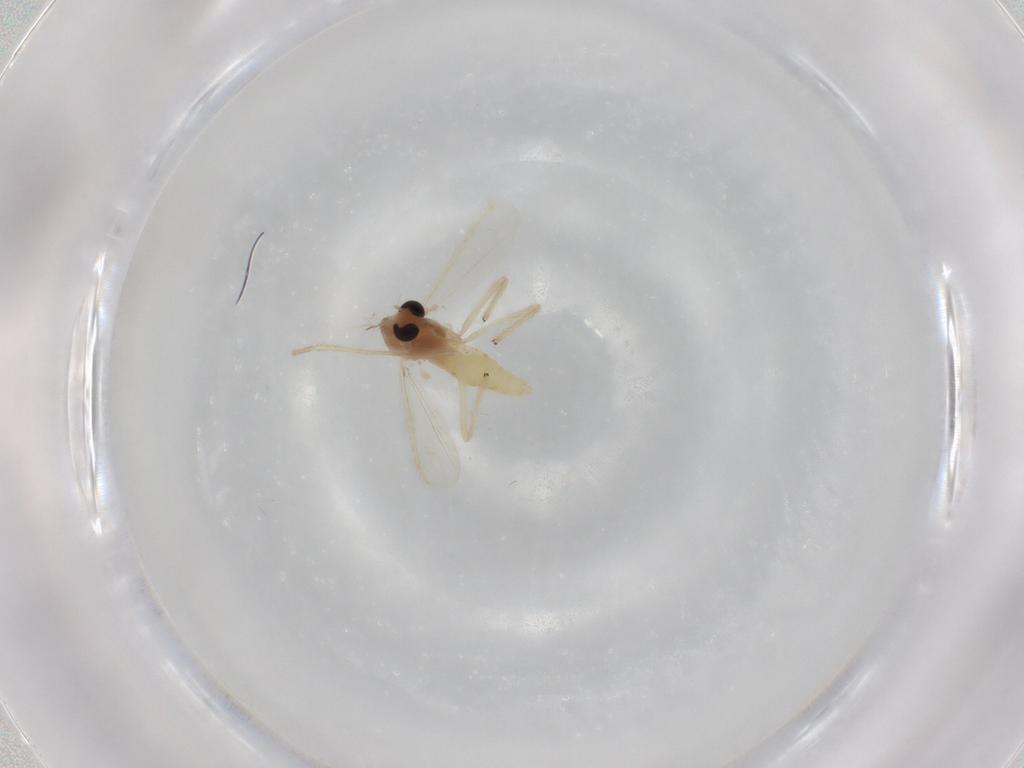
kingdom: Animalia
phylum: Arthropoda
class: Insecta
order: Diptera
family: Chironomidae
